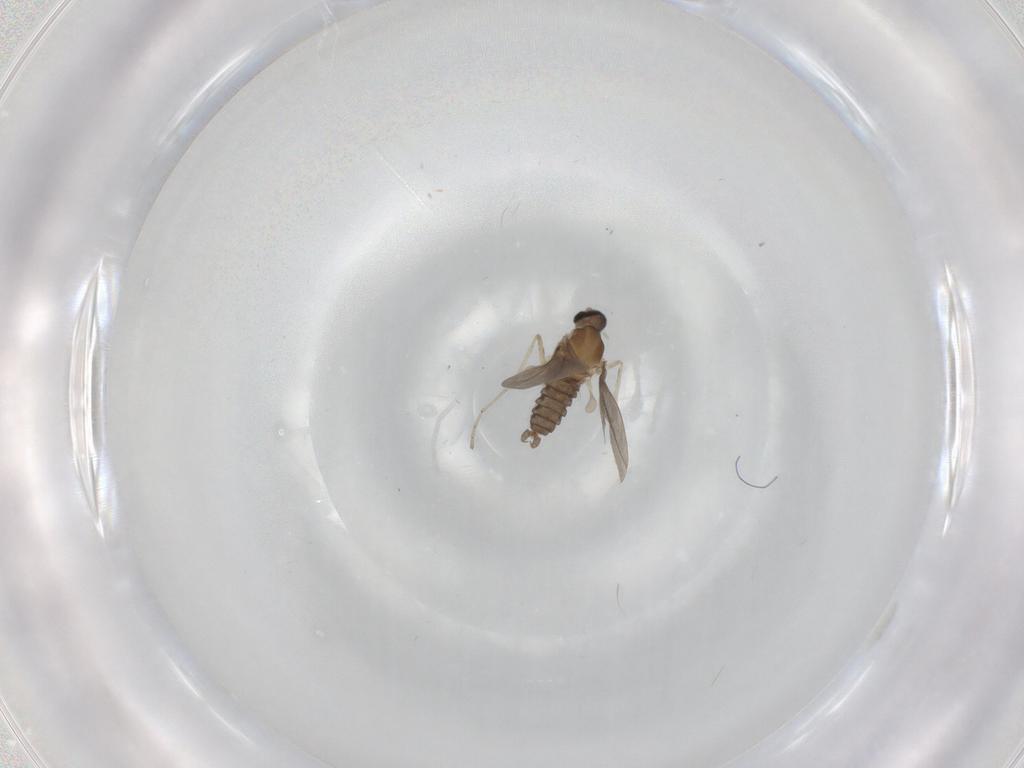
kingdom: Animalia
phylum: Arthropoda
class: Insecta
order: Diptera
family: Cecidomyiidae
